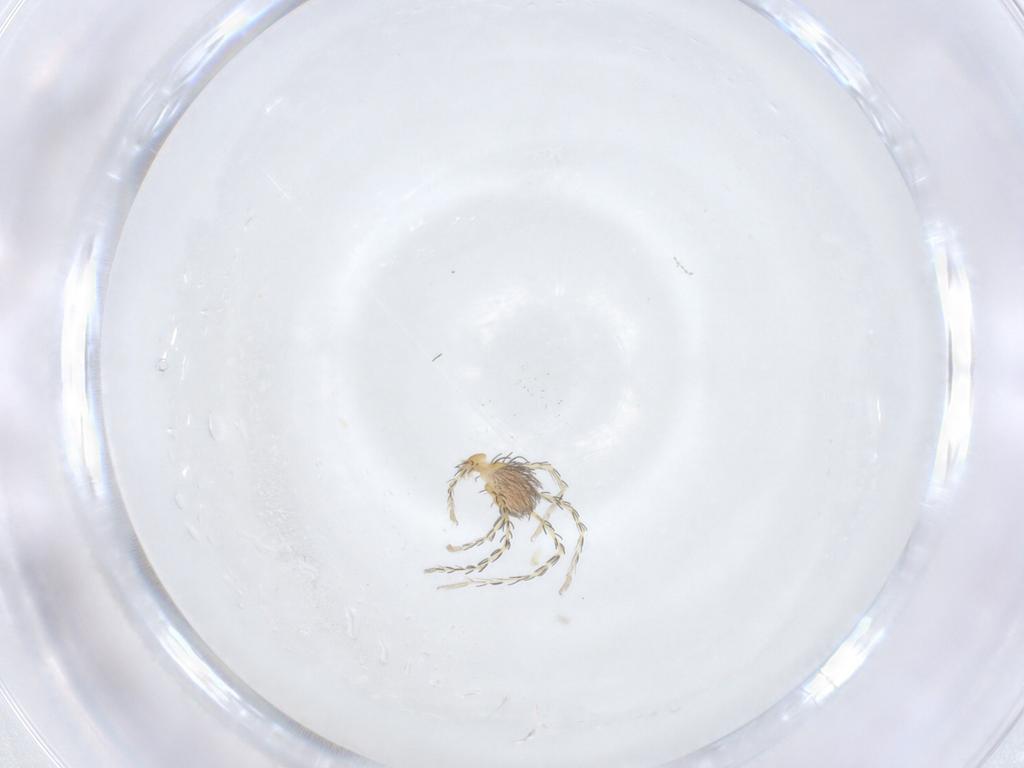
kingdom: Animalia
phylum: Arthropoda
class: Arachnida
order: Trombidiformes
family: Erythraeidae
